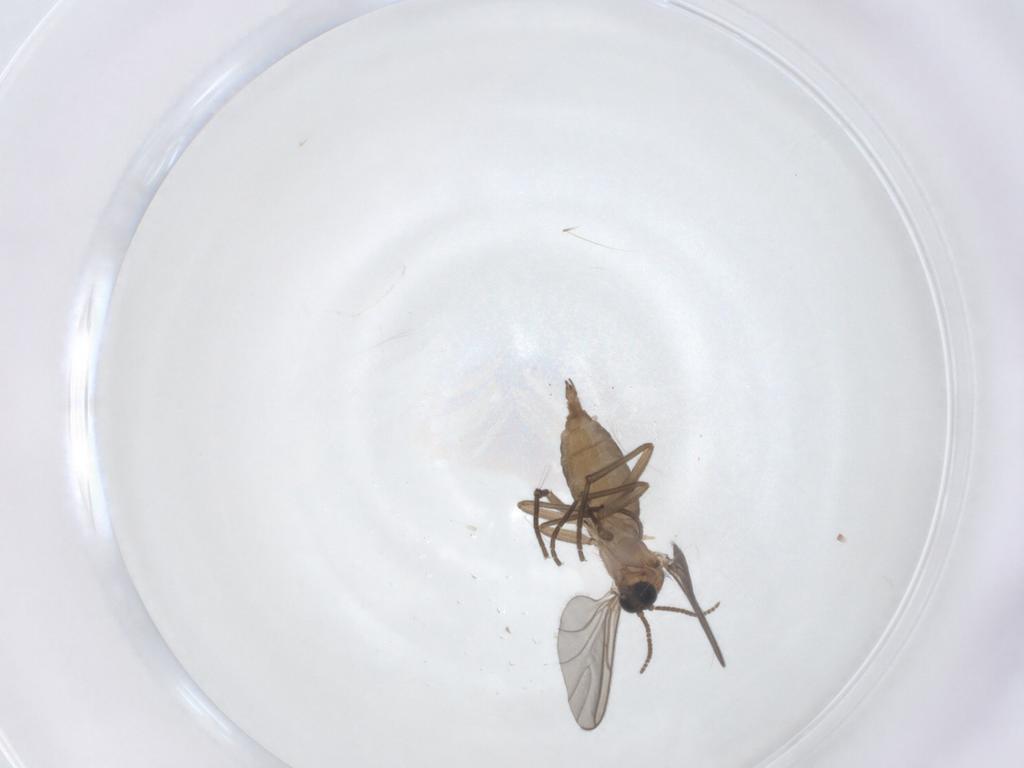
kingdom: Animalia
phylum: Arthropoda
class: Insecta
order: Diptera
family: Sciaridae
